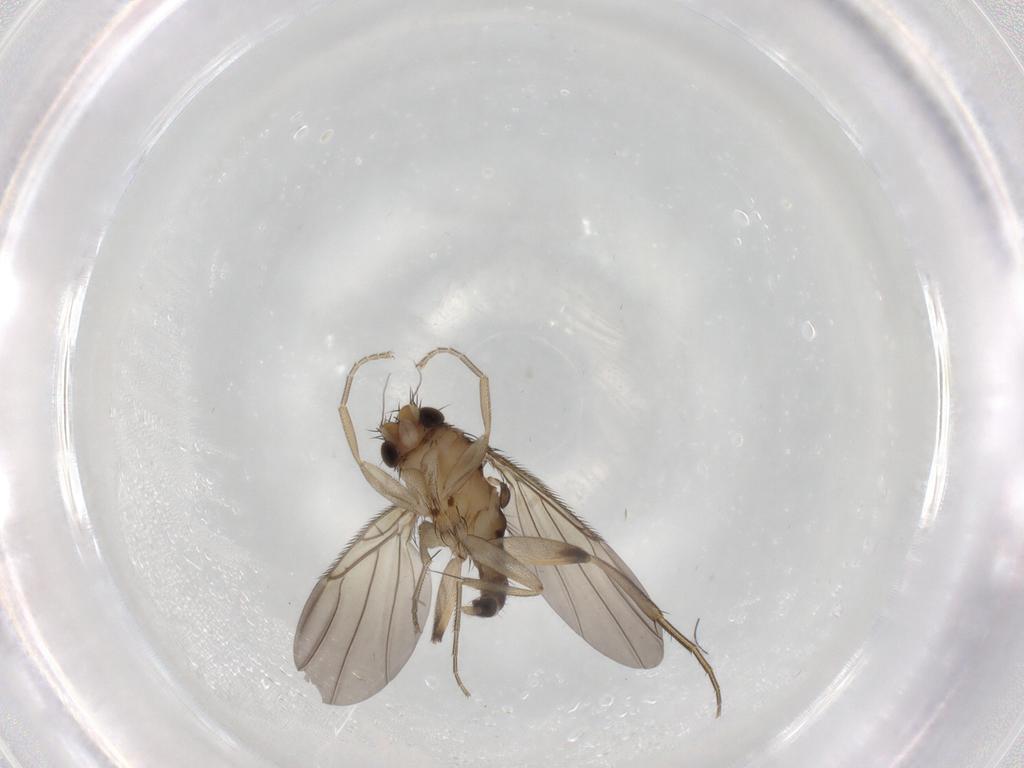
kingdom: Animalia
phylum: Arthropoda
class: Insecta
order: Diptera
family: Phoridae
